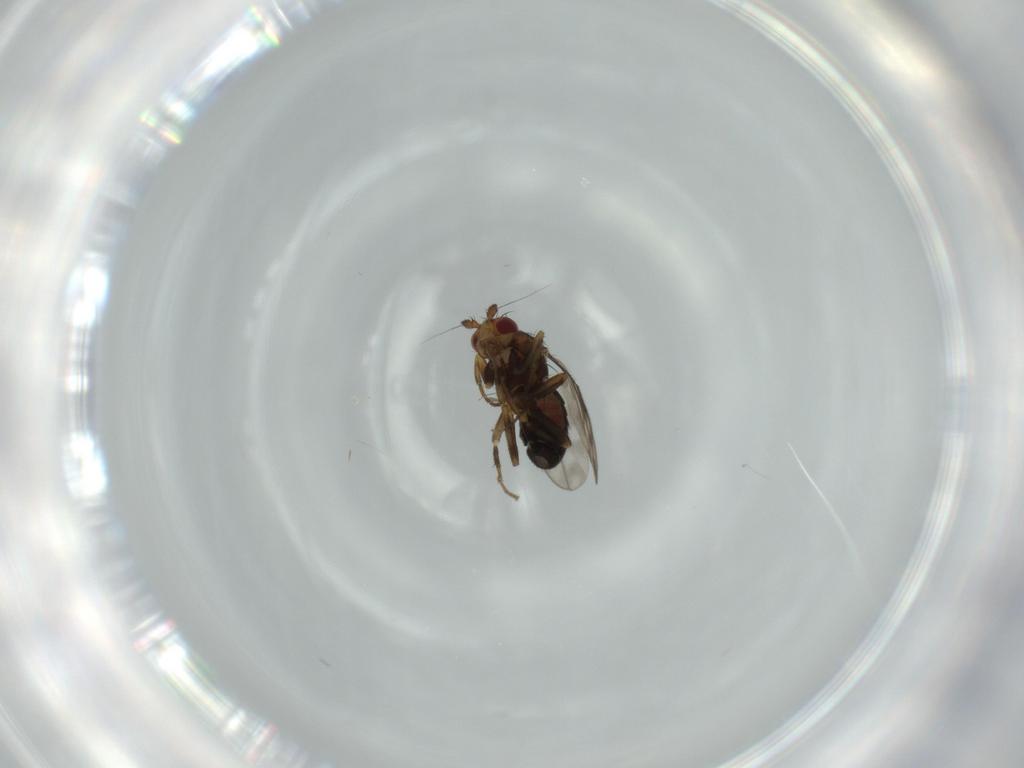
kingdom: Animalia
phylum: Arthropoda
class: Insecta
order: Diptera
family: Sphaeroceridae
